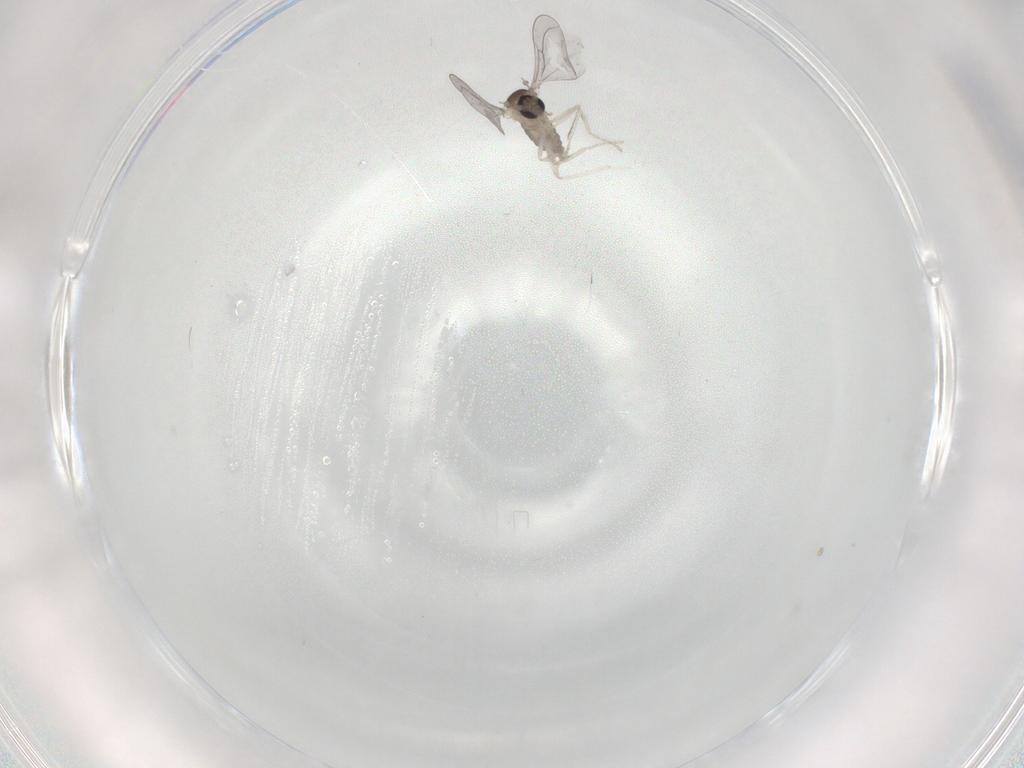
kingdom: Animalia
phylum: Arthropoda
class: Insecta
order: Diptera
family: Chironomidae
